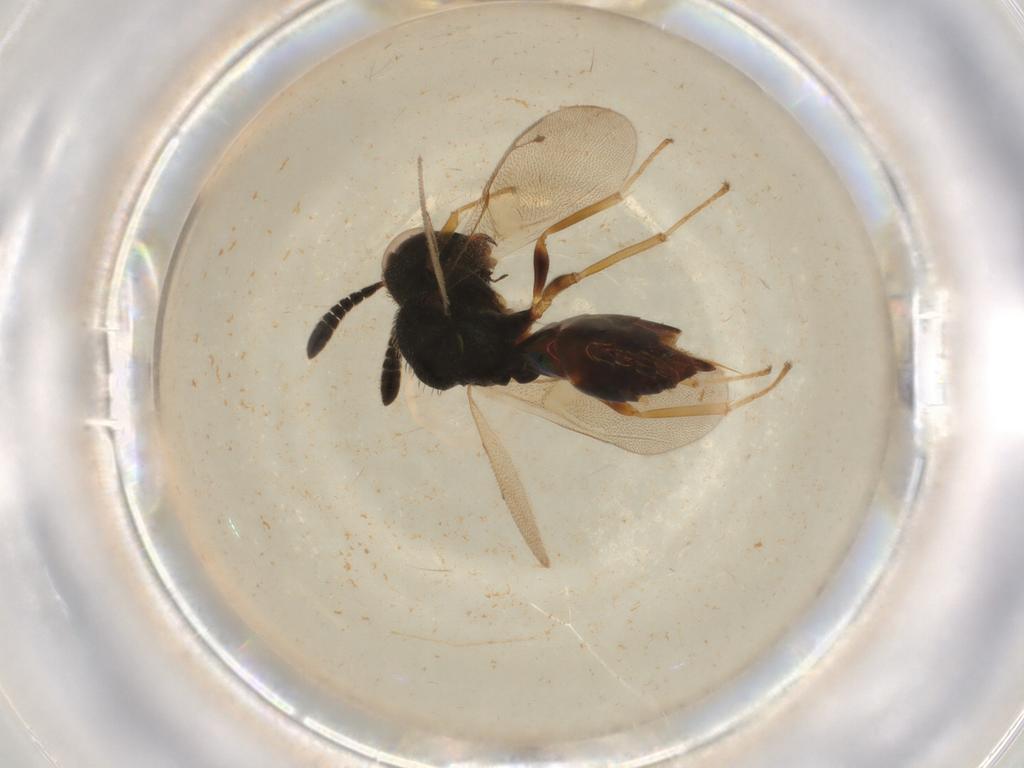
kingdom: Animalia
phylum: Arthropoda
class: Insecta
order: Hymenoptera
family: Pteromalidae
